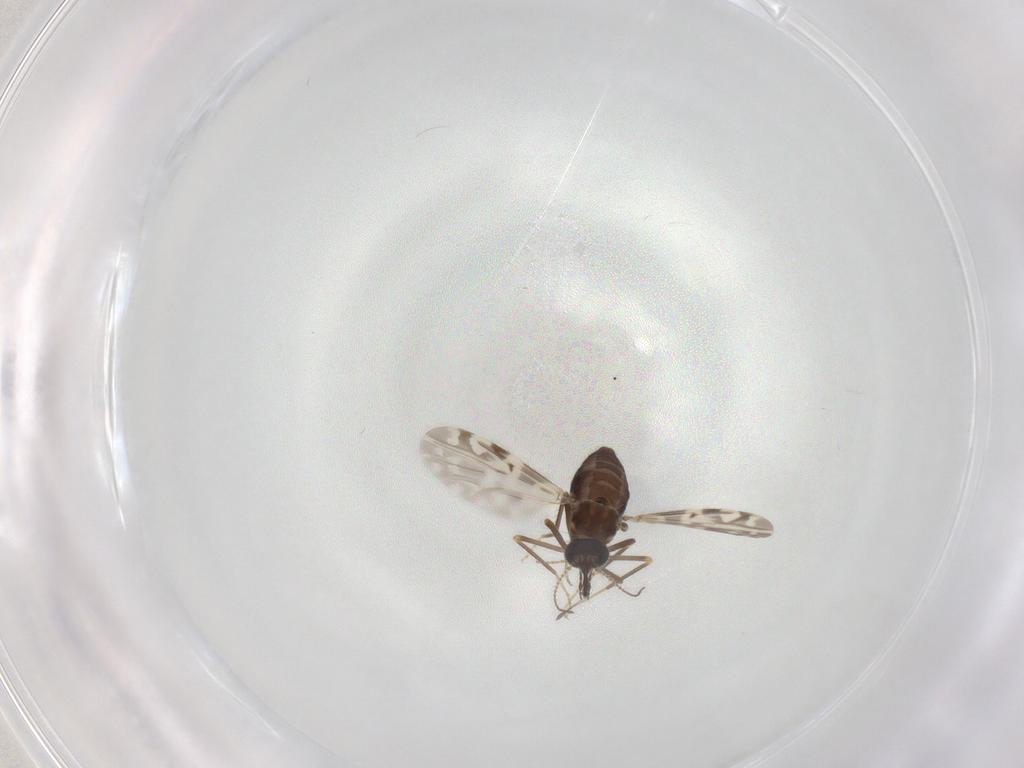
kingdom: Animalia
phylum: Arthropoda
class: Insecta
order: Diptera
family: Ceratopogonidae
